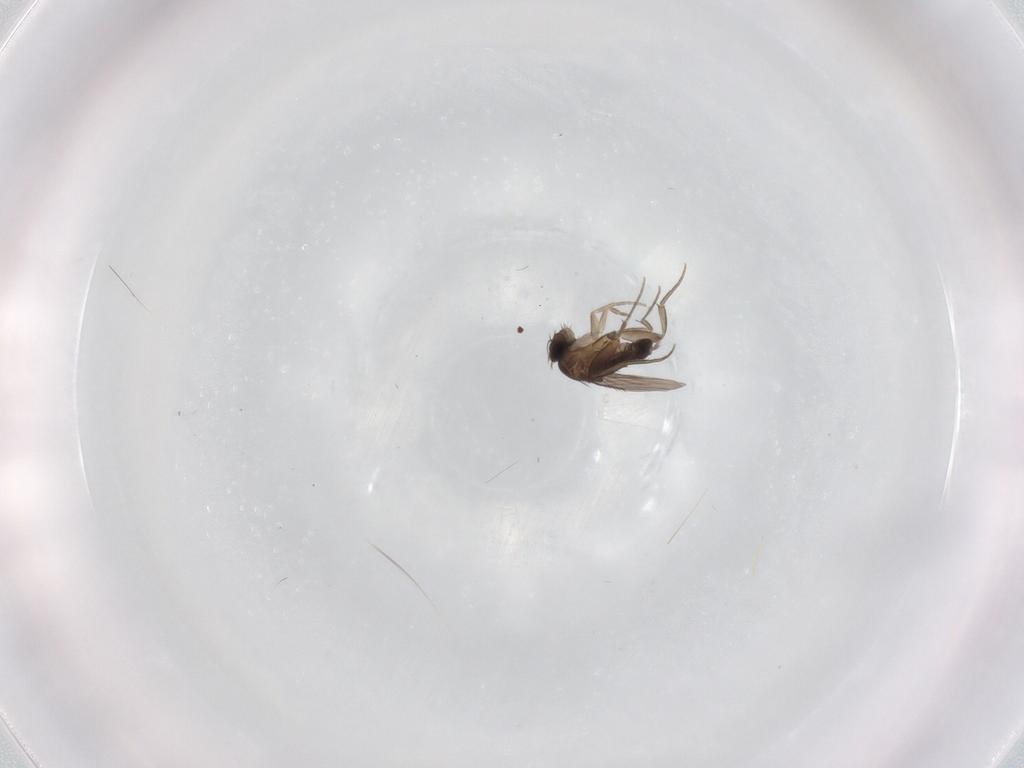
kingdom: Animalia
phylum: Arthropoda
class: Insecta
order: Diptera
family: Phoridae
